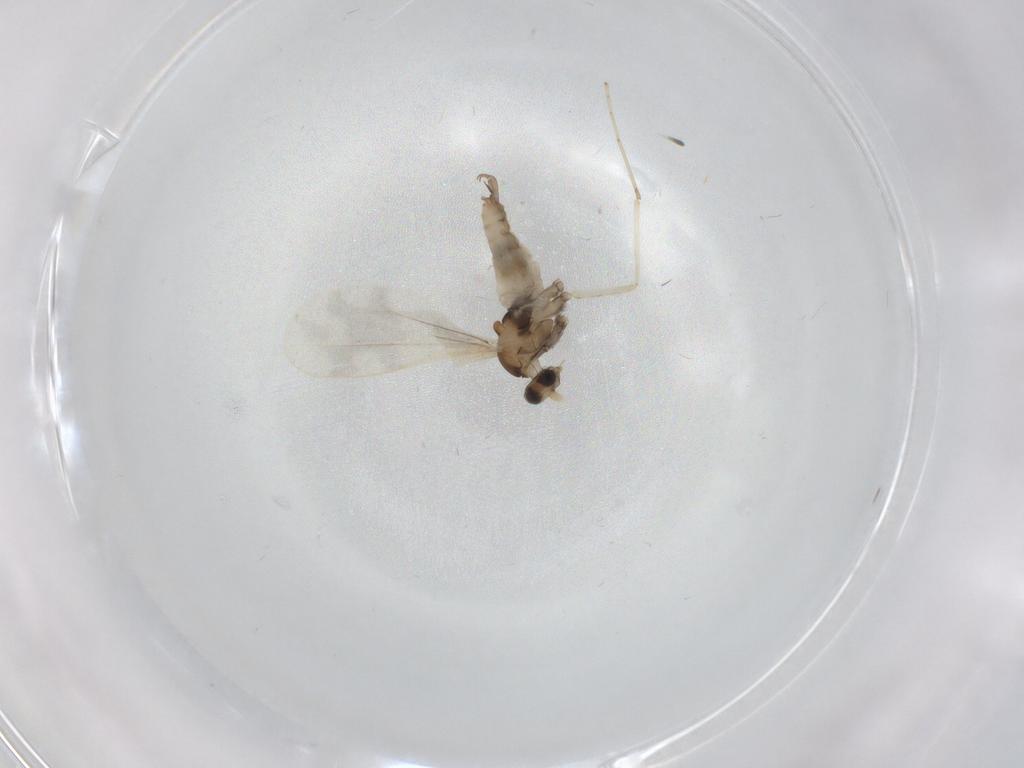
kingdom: Animalia
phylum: Arthropoda
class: Insecta
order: Diptera
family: Cecidomyiidae
